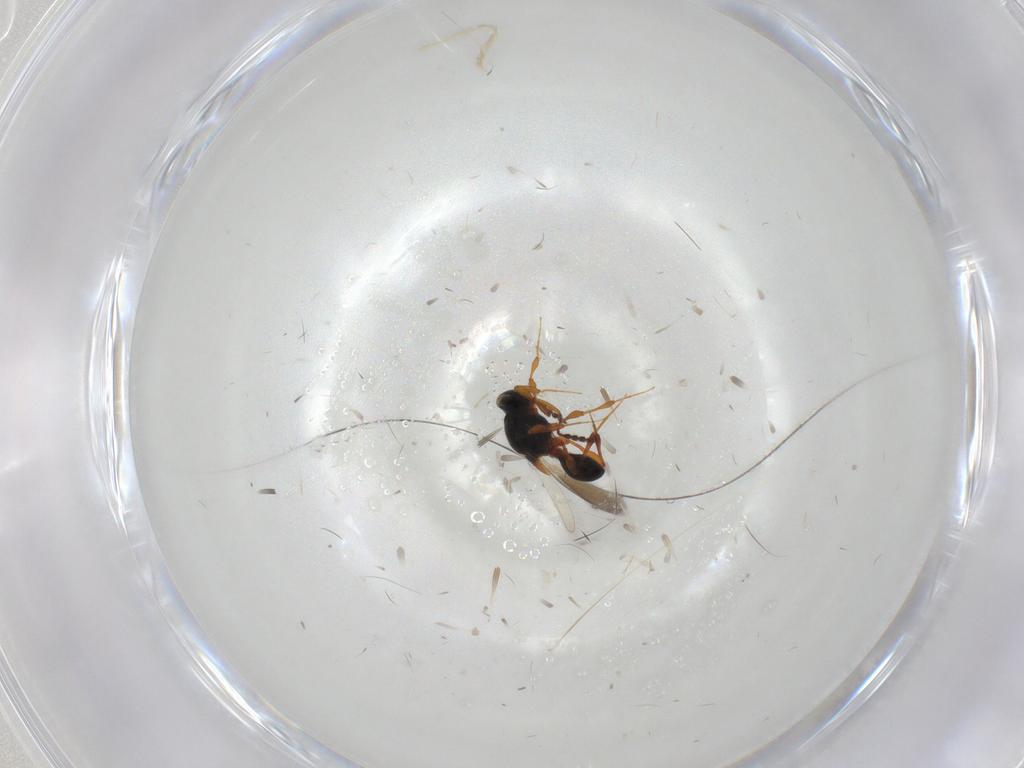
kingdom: Animalia
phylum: Arthropoda
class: Insecta
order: Hymenoptera
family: Platygastridae
